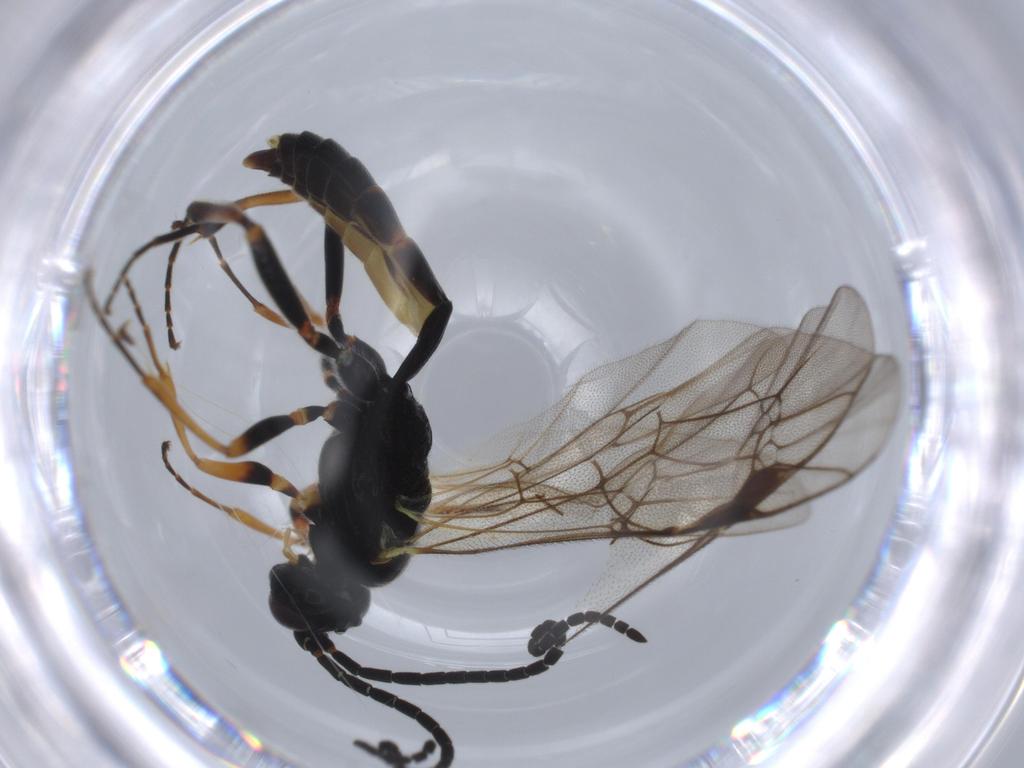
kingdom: Animalia
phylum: Arthropoda
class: Insecta
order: Hymenoptera
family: Ichneumonidae
